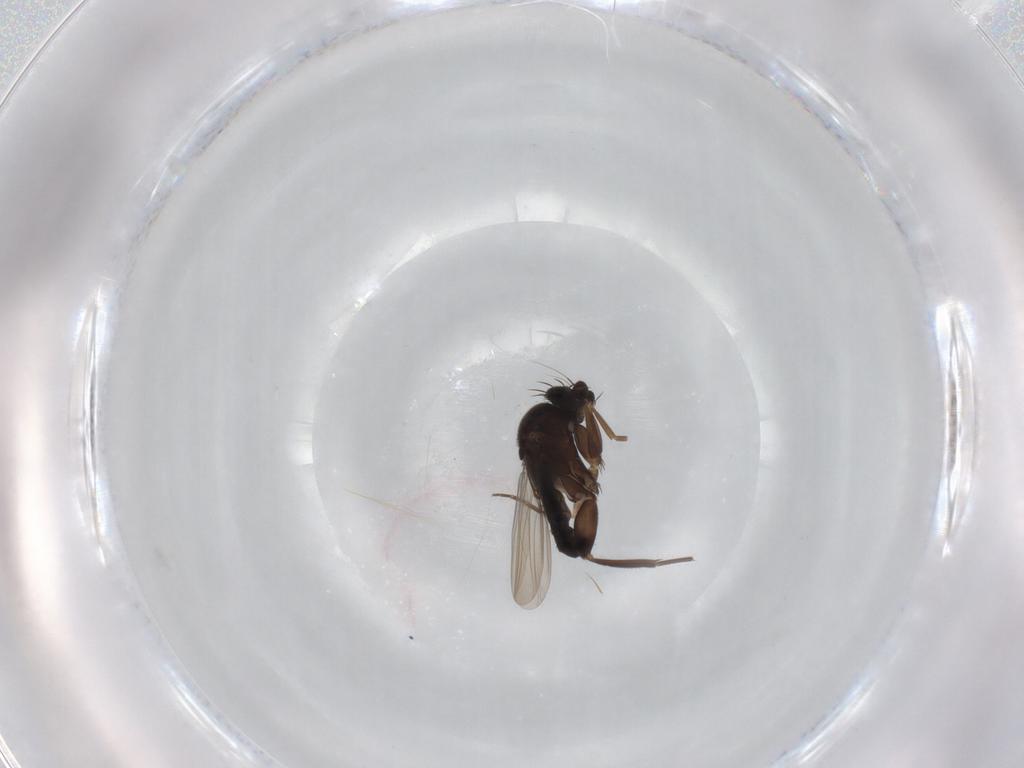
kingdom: Animalia
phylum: Arthropoda
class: Insecta
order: Diptera
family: Phoridae
